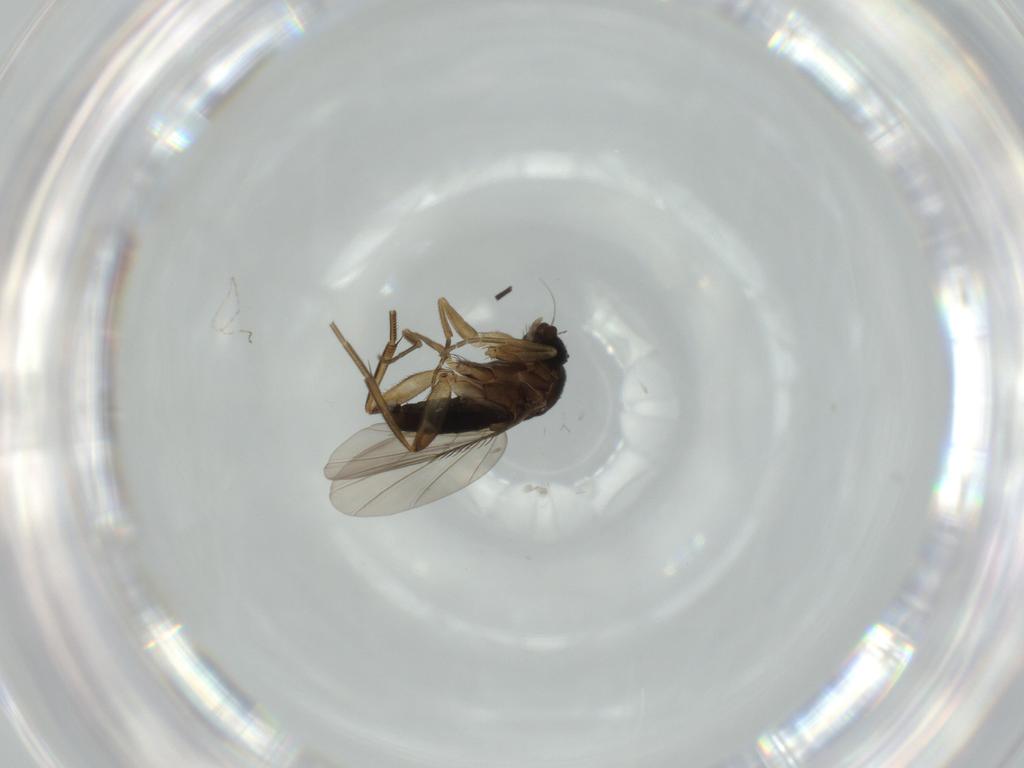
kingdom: Animalia
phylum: Arthropoda
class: Insecta
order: Diptera
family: Phoridae
